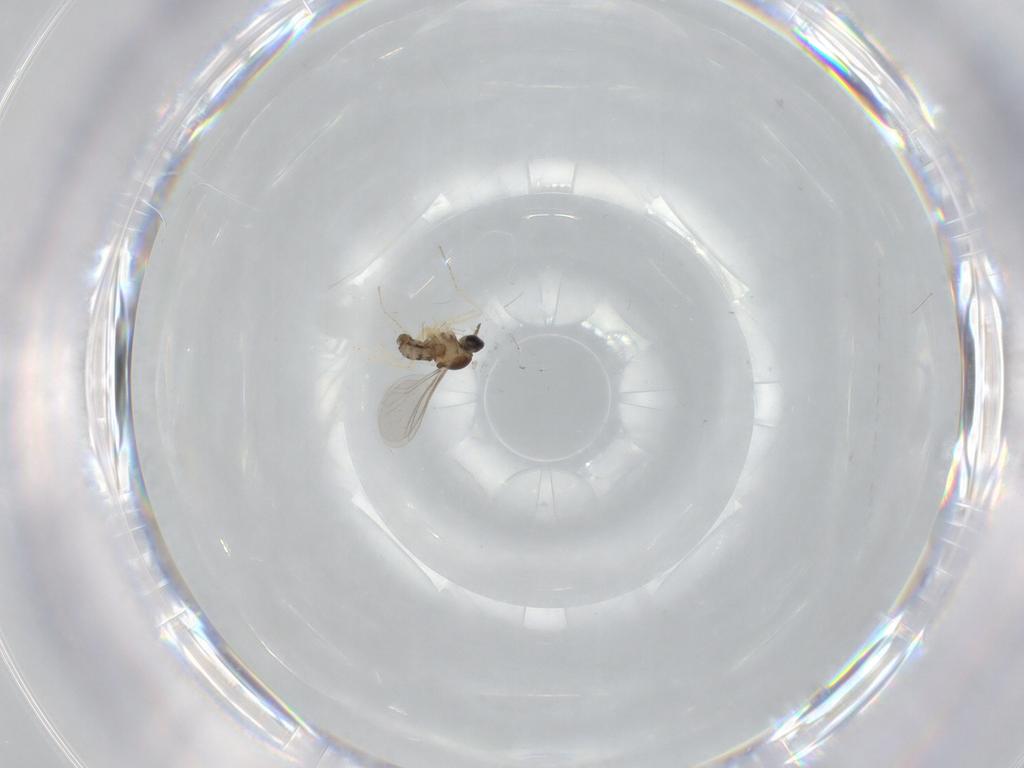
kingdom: Animalia
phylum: Arthropoda
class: Insecta
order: Diptera
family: Cecidomyiidae
